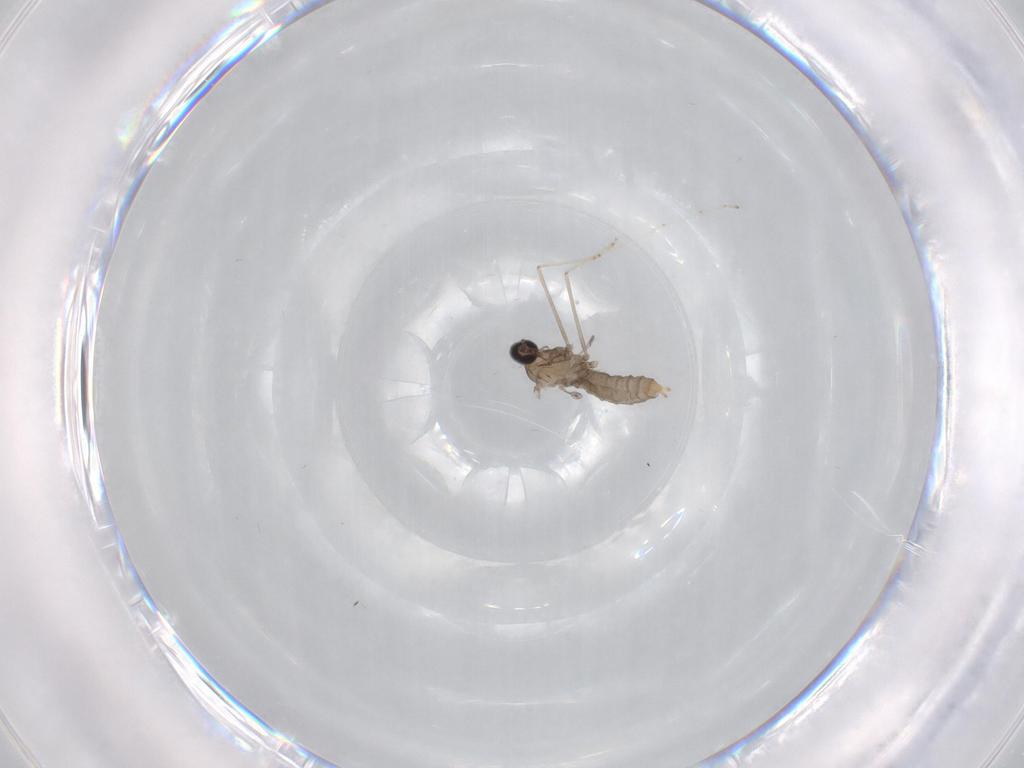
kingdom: Animalia
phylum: Arthropoda
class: Insecta
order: Diptera
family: Cecidomyiidae
